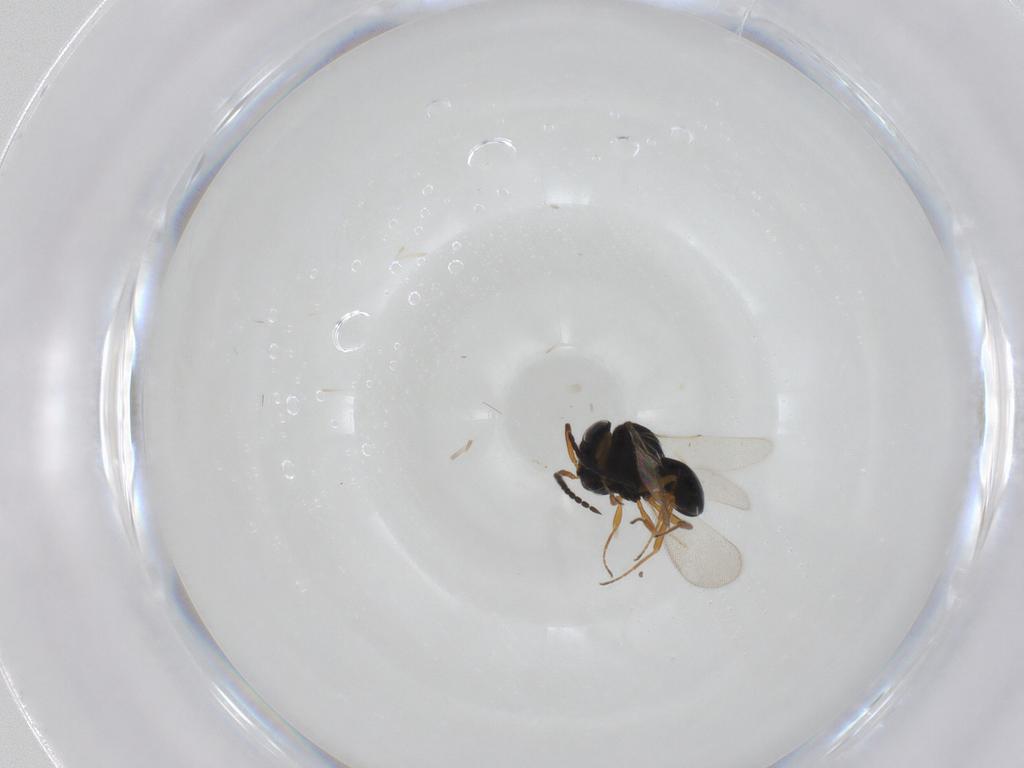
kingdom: Animalia
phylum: Arthropoda
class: Insecta
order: Hymenoptera
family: Scelionidae
